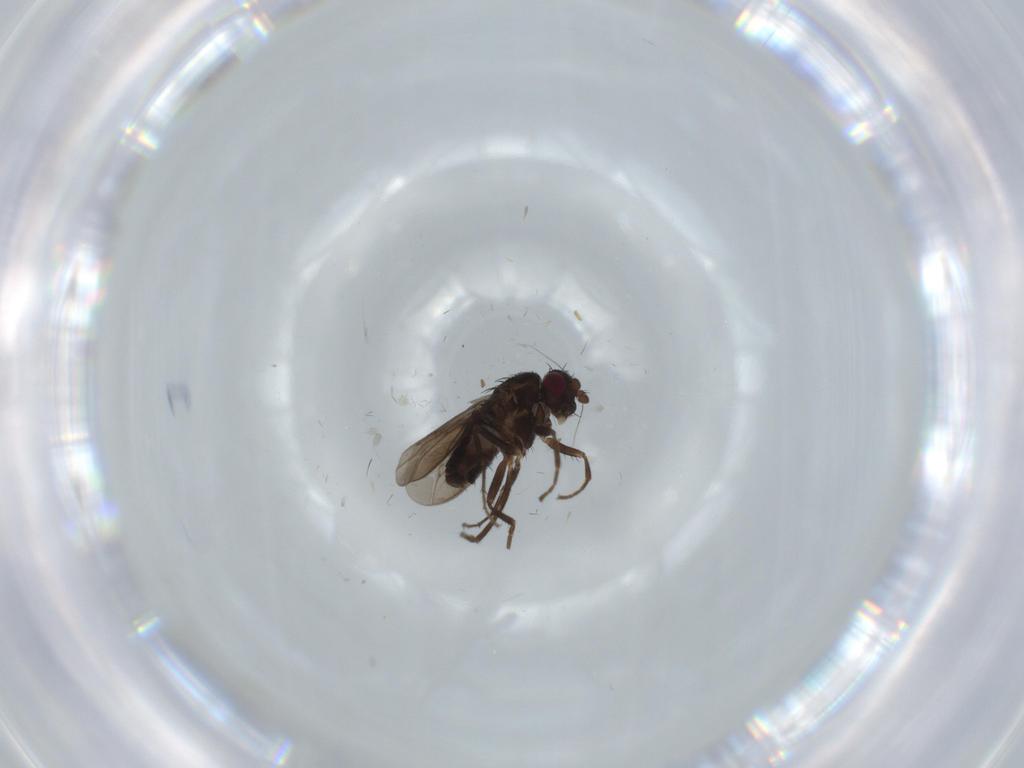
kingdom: Animalia
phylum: Arthropoda
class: Insecta
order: Diptera
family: Sphaeroceridae
